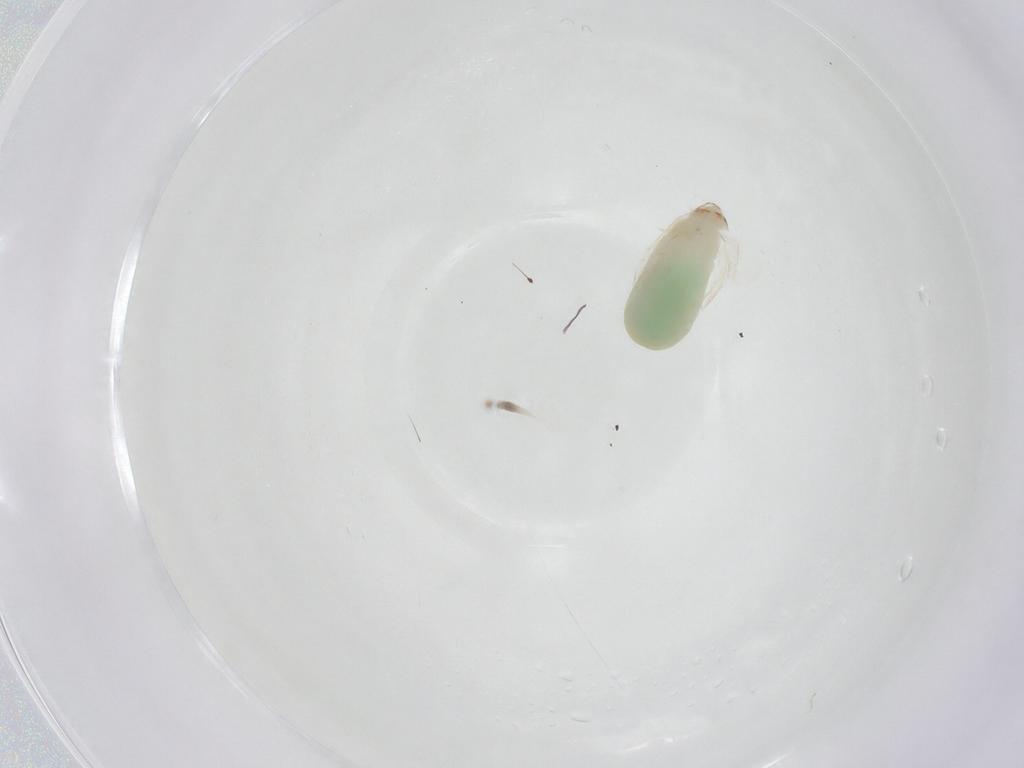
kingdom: Animalia
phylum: Arthropoda
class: Insecta
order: Hymenoptera
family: Dryinidae
